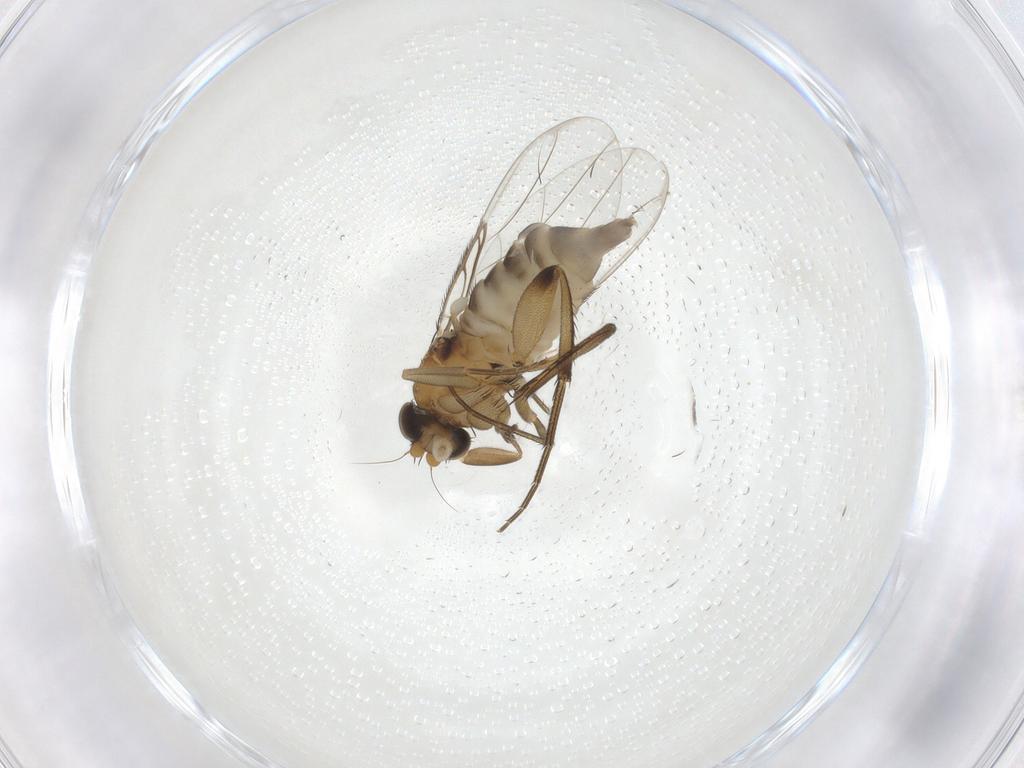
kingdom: Animalia
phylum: Arthropoda
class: Insecta
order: Diptera
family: Phoridae
